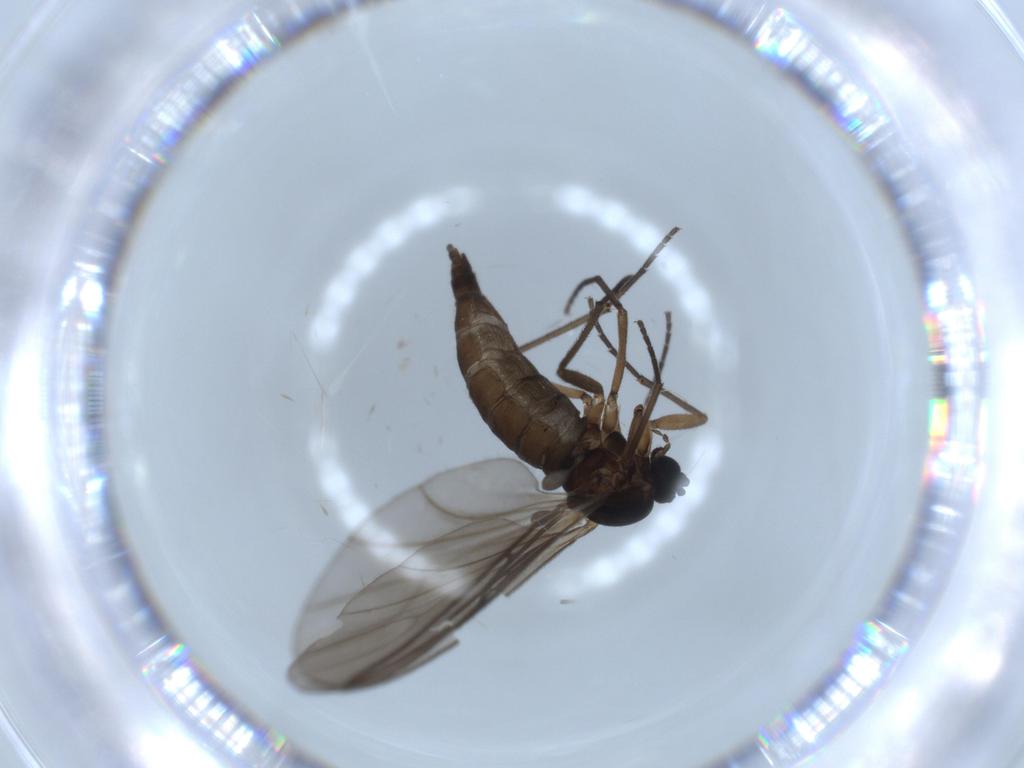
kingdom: Animalia
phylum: Arthropoda
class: Insecta
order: Diptera
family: Sciaridae
